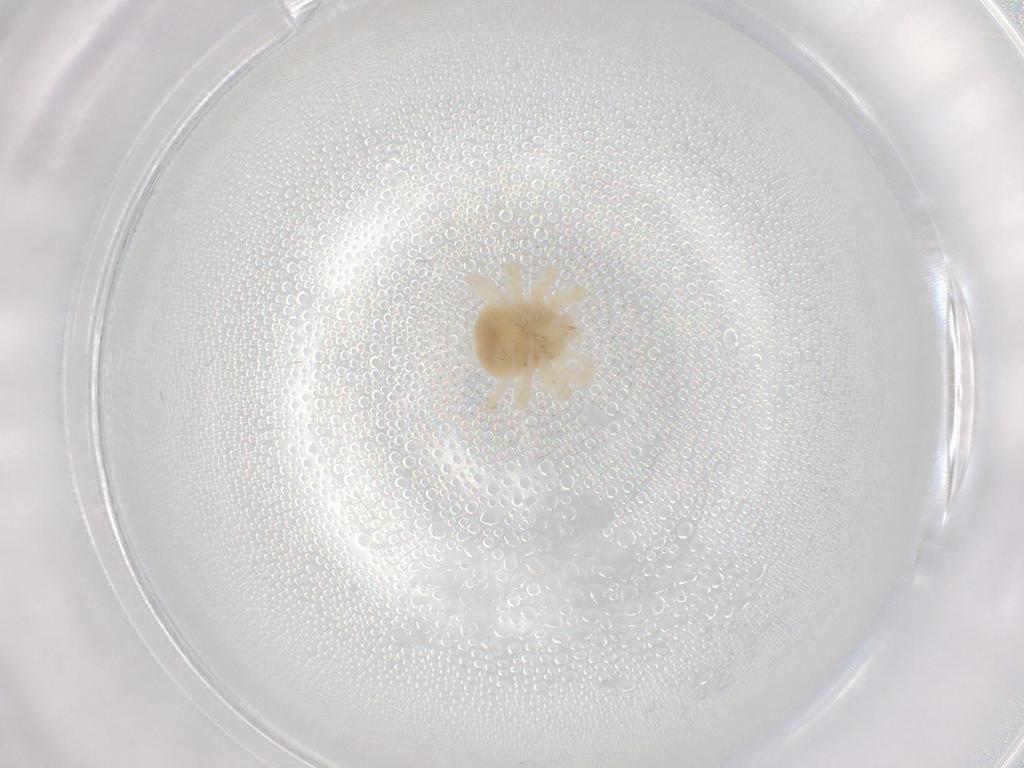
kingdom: Animalia
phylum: Arthropoda
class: Arachnida
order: Trombidiformes
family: Anystidae
